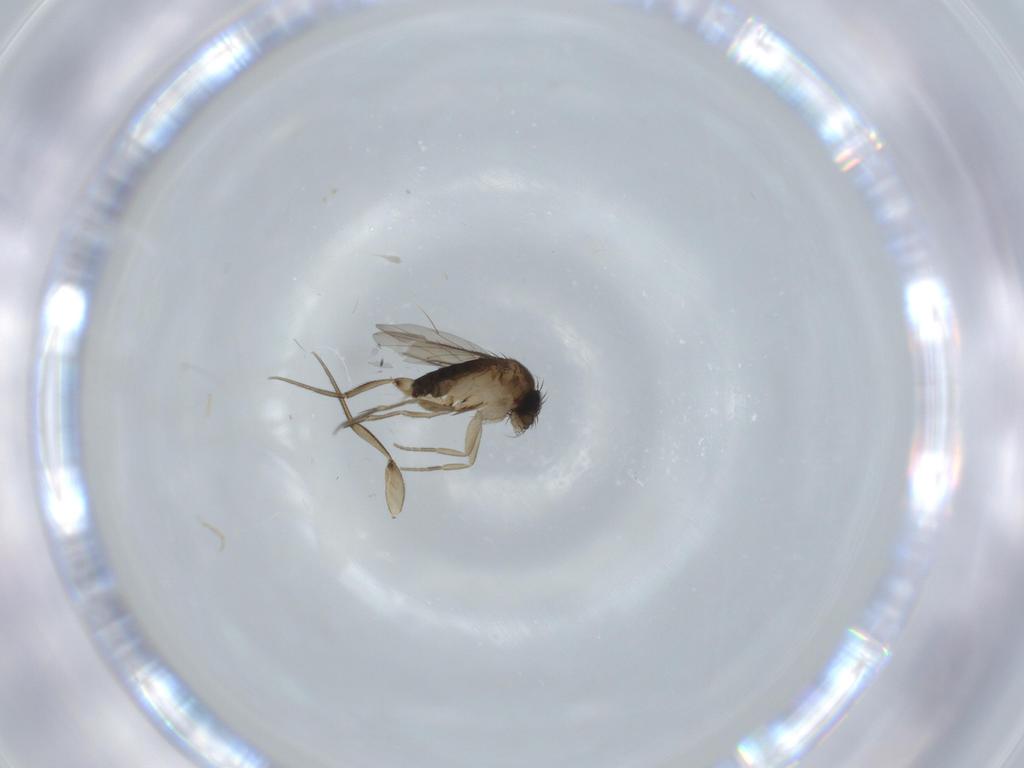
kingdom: Animalia
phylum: Arthropoda
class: Insecta
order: Diptera
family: Phoridae
